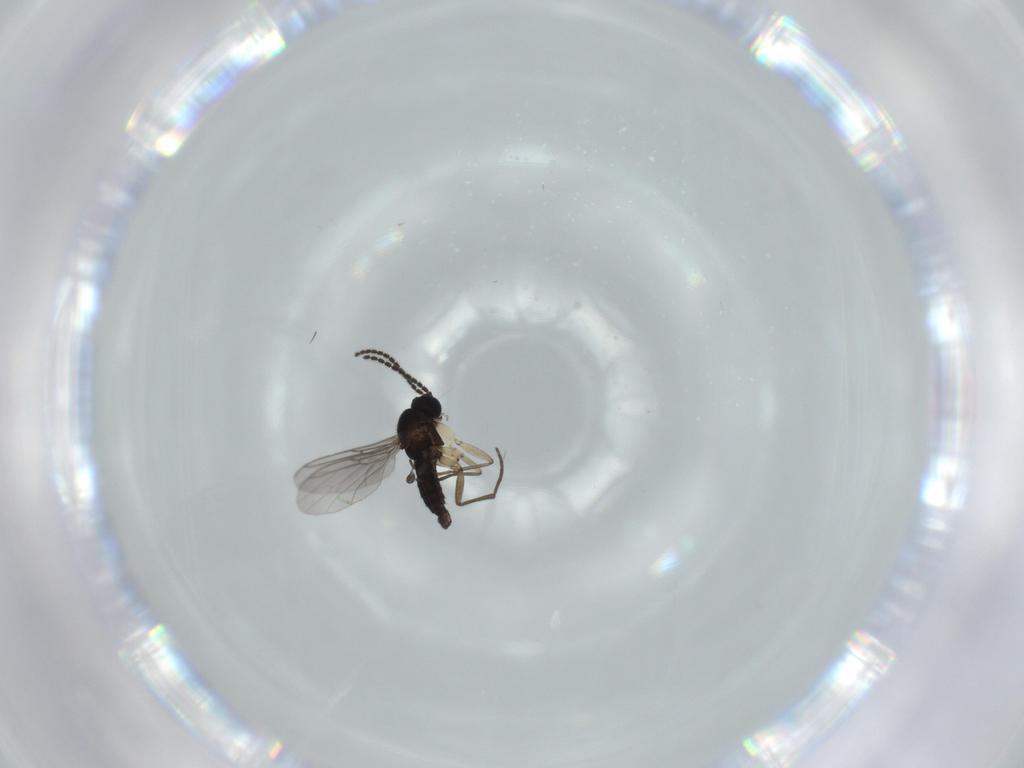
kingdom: Animalia
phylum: Arthropoda
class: Insecta
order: Diptera
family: Sciaridae
